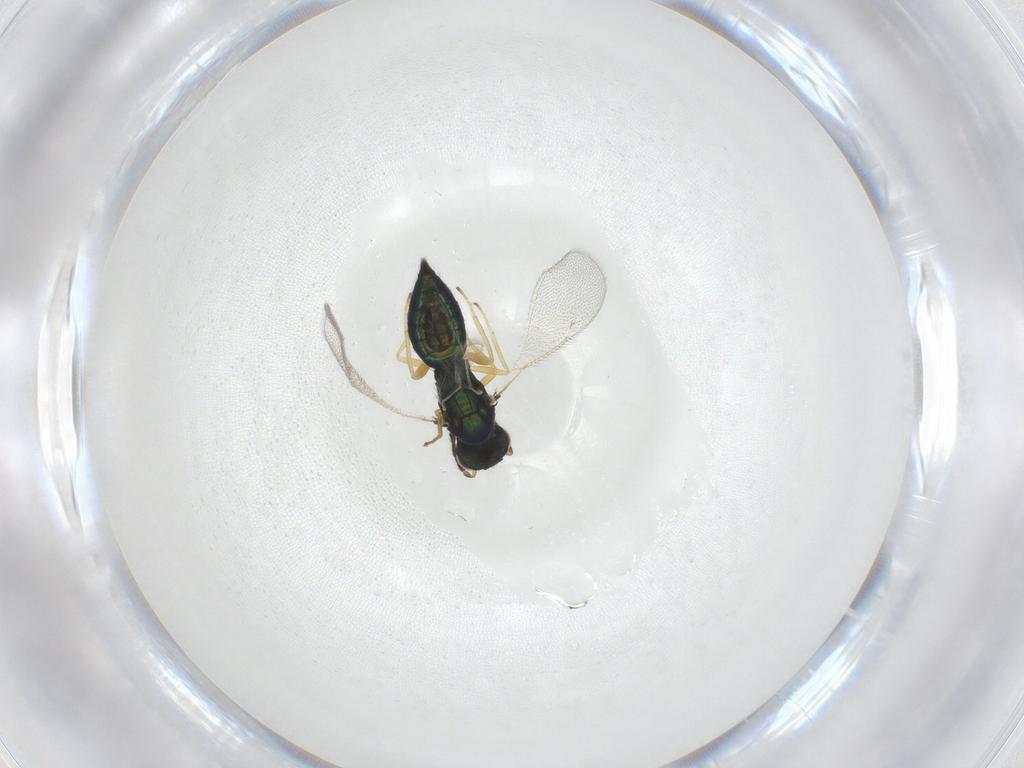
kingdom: Animalia
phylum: Arthropoda
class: Insecta
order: Hymenoptera
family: Eulophidae
